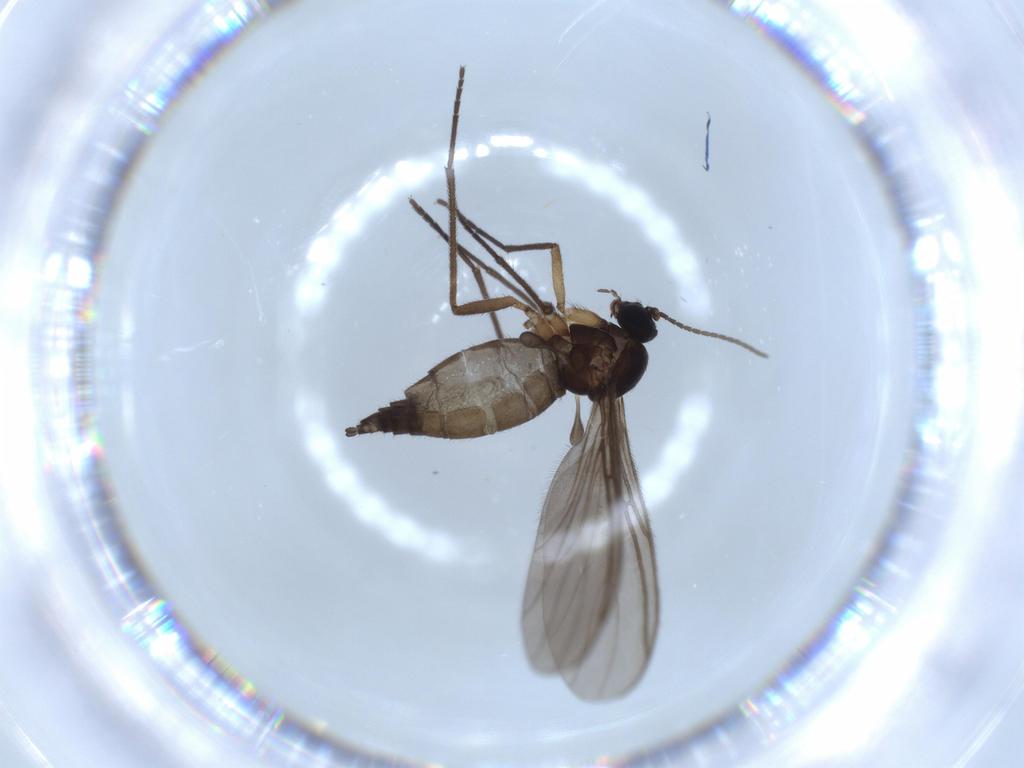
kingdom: Animalia
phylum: Arthropoda
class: Insecta
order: Diptera
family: Sciaridae
